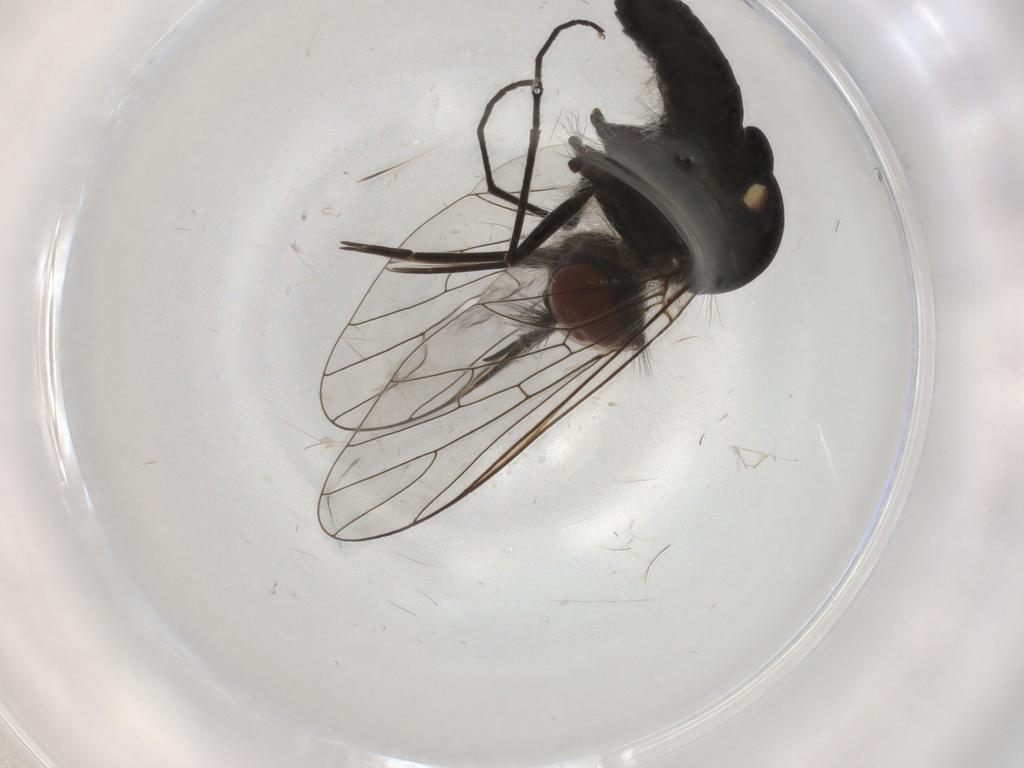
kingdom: Animalia
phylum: Arthropoda
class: Insecta
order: Diptera
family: Bombyliidae
